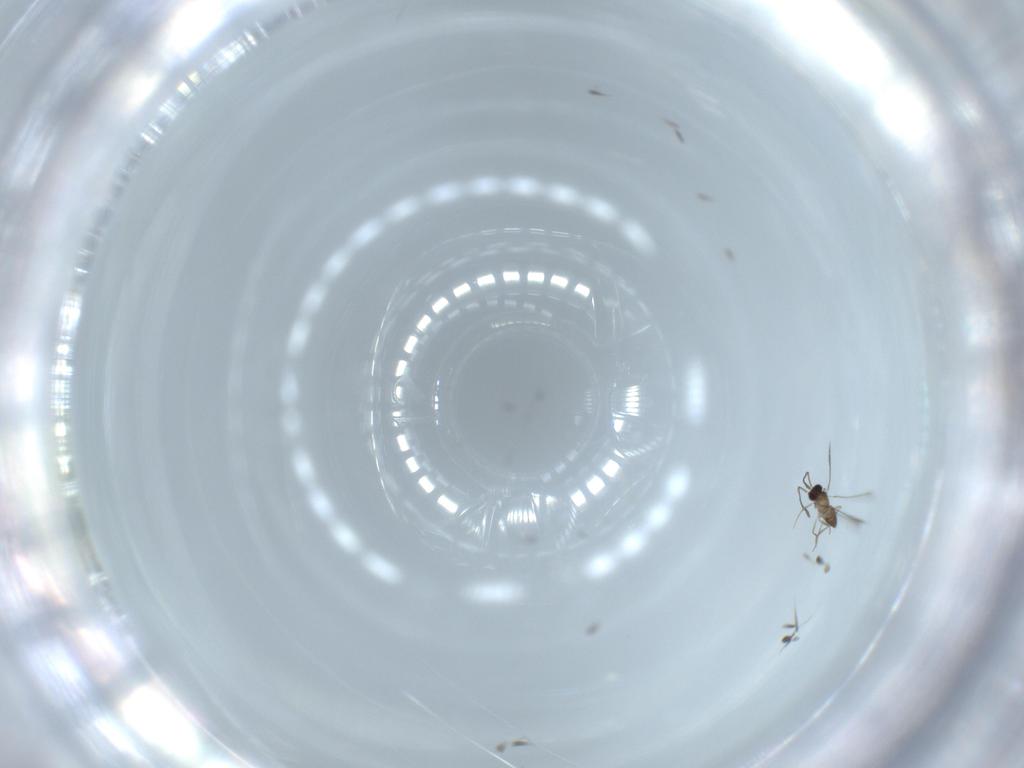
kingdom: Animalia
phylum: Arthropoda
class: Insecta
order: Hymenoptera
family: Mymaridae
